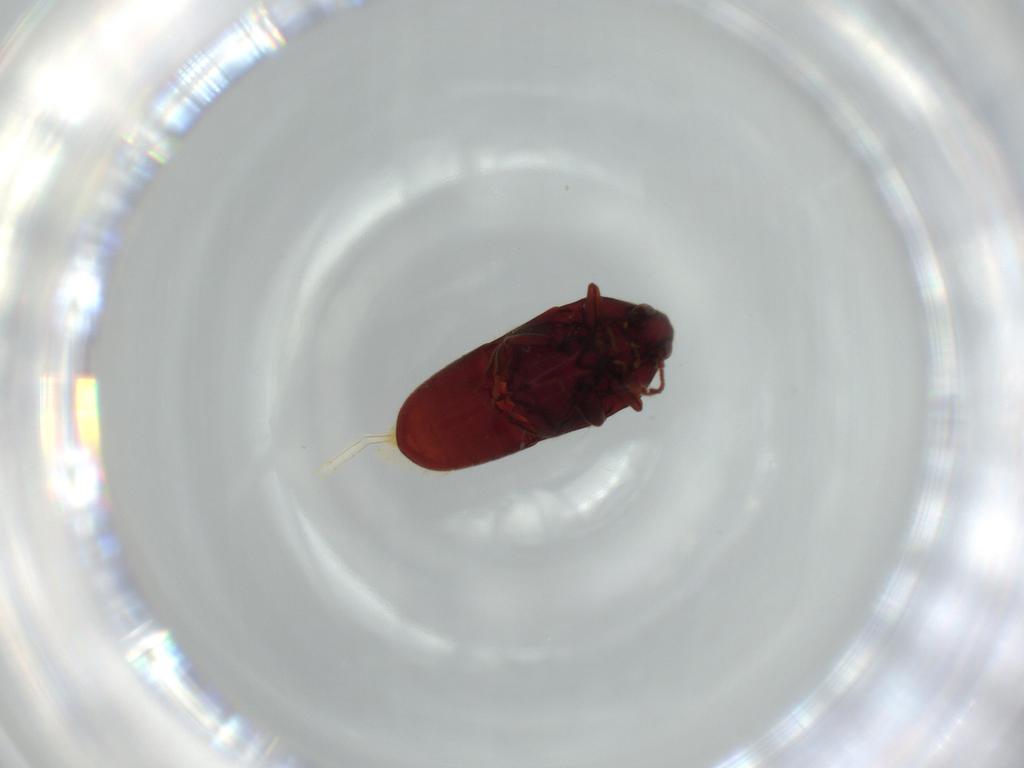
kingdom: Animalia
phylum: Arthropoda
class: Insecta
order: Coleoptera
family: Throscidae
